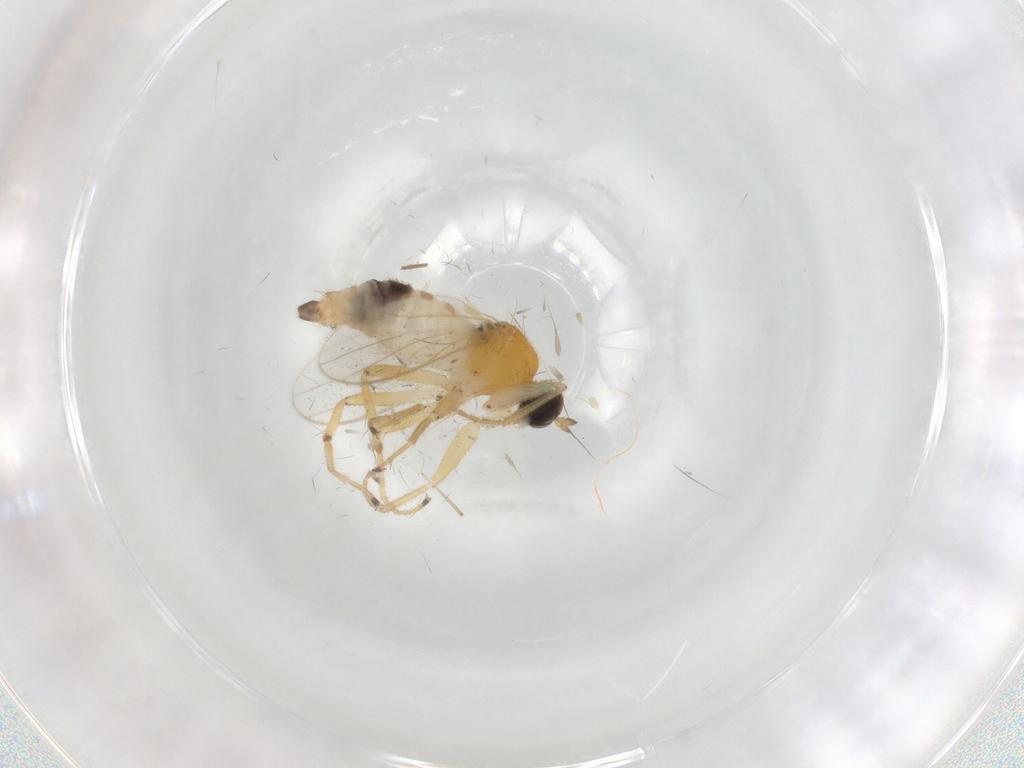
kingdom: Animalia
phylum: Arthropoda
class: Insecta
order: Diptera
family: Hybotidae
